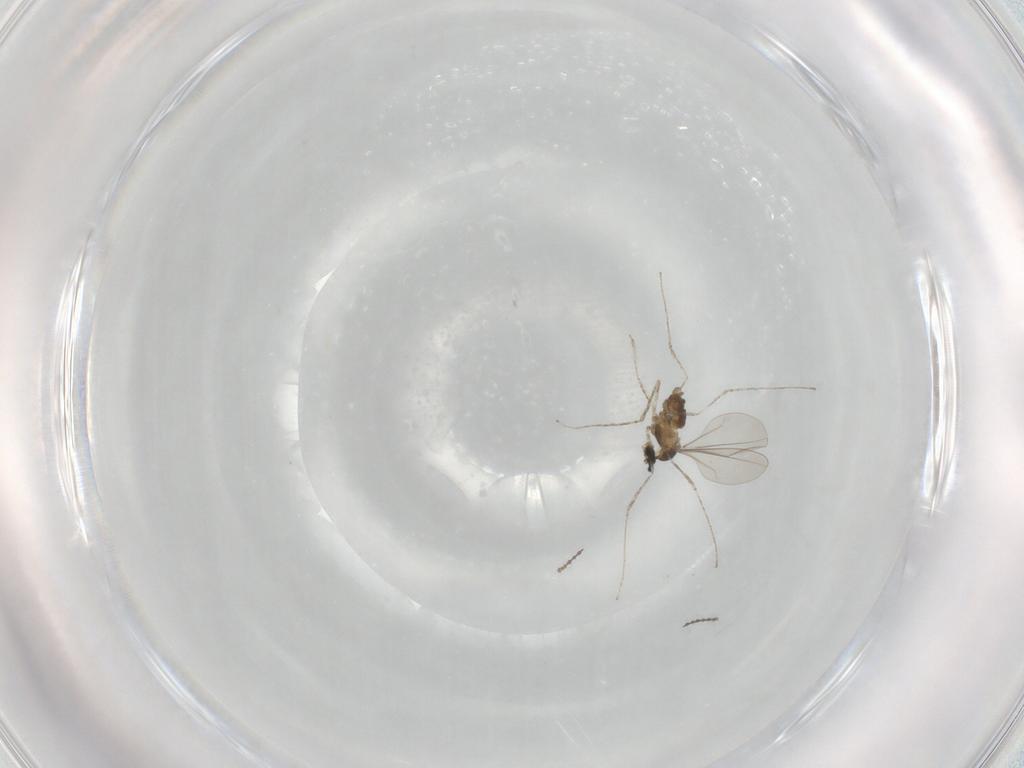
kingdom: Animalia
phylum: Arthropoda
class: Insecta
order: Diptera
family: Cecidomyiidae
